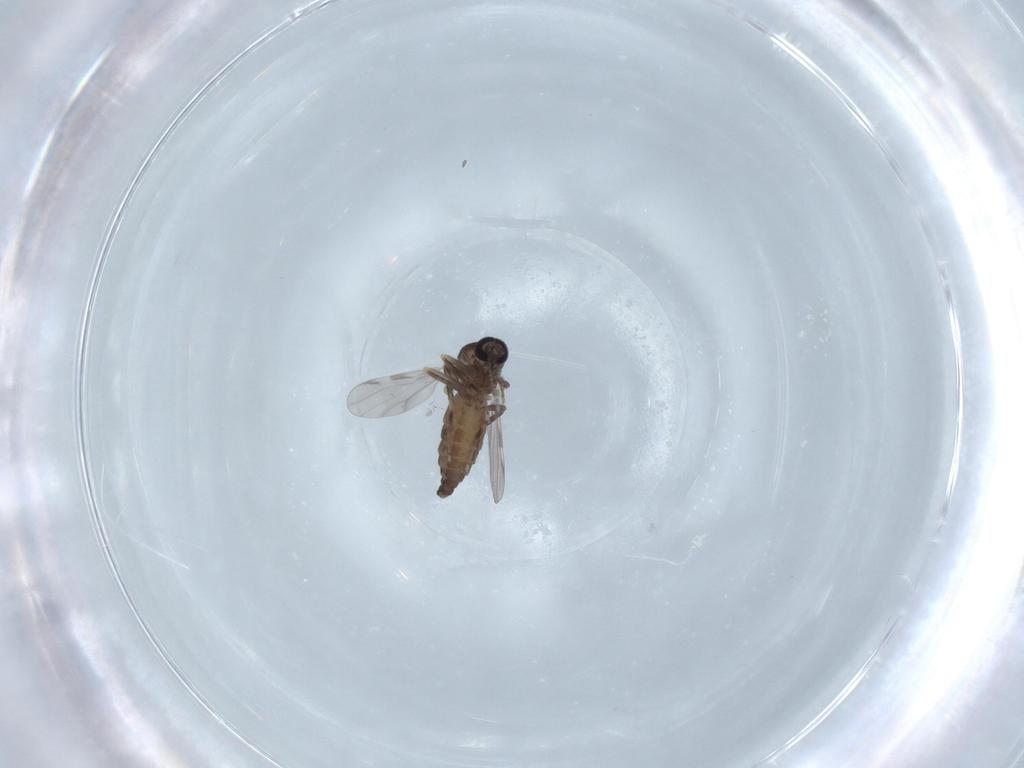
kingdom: Animalia
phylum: Arthropoda
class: Insecta
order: Diptera
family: Ceratopogonidae
